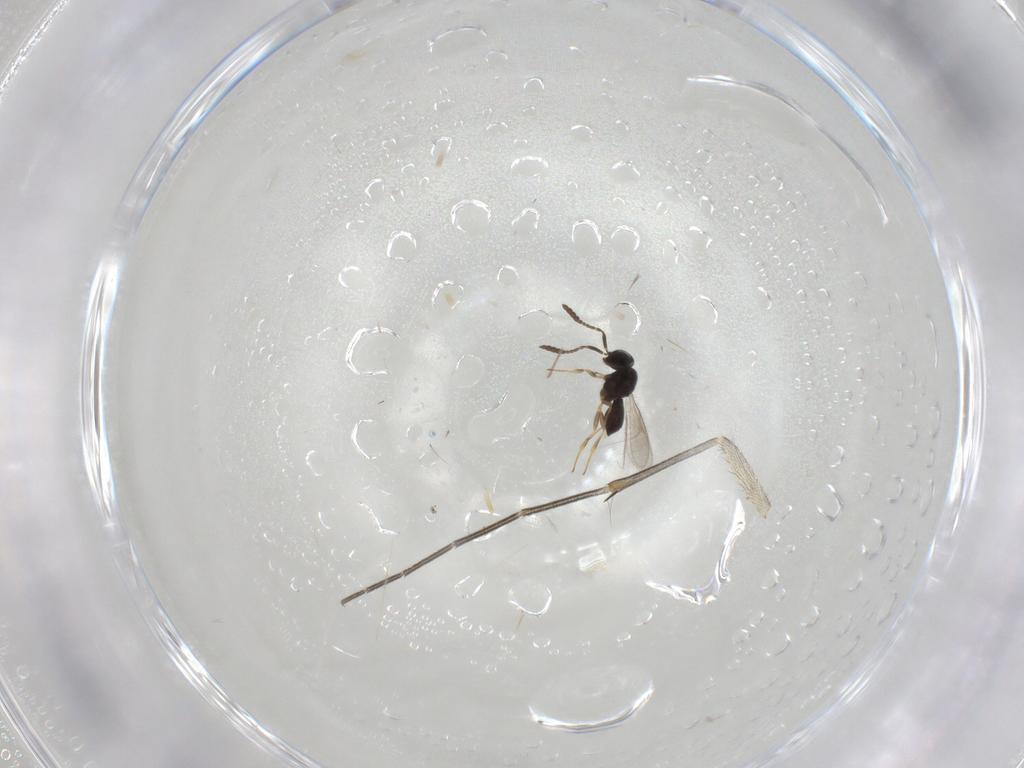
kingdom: Animalia
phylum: Arthropoda
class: Insecta
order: Hymenoptera
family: Scelionidae
